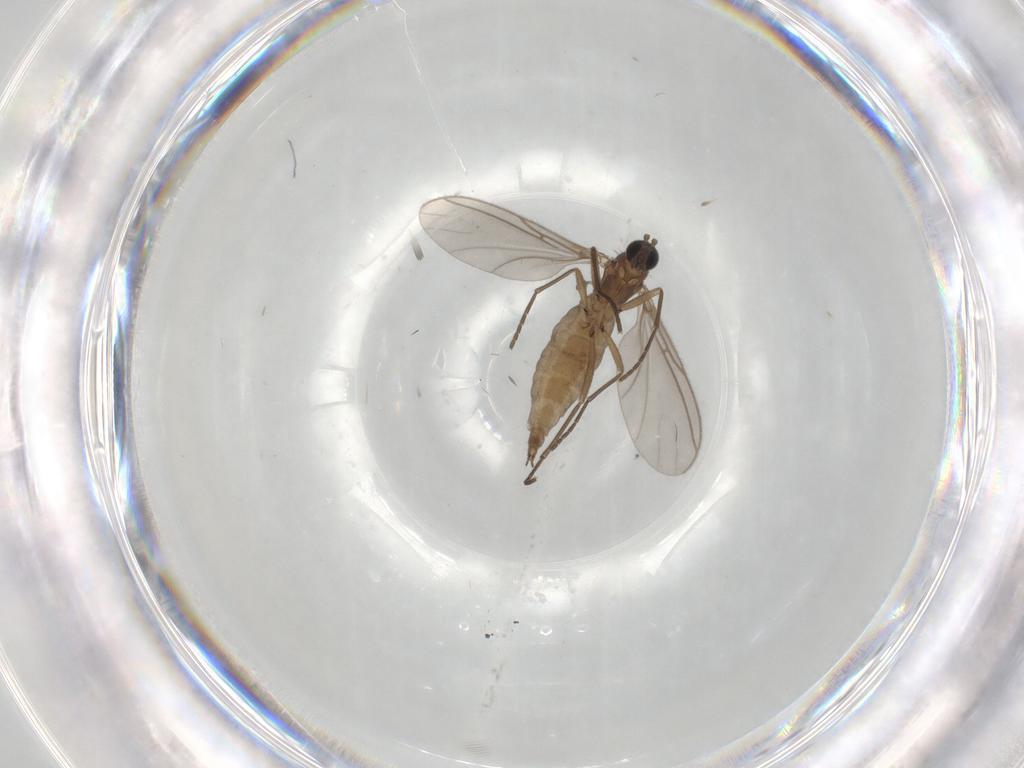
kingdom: Animalia
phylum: Arthropoda
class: Insecta
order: Diptera
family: Sciaridae
